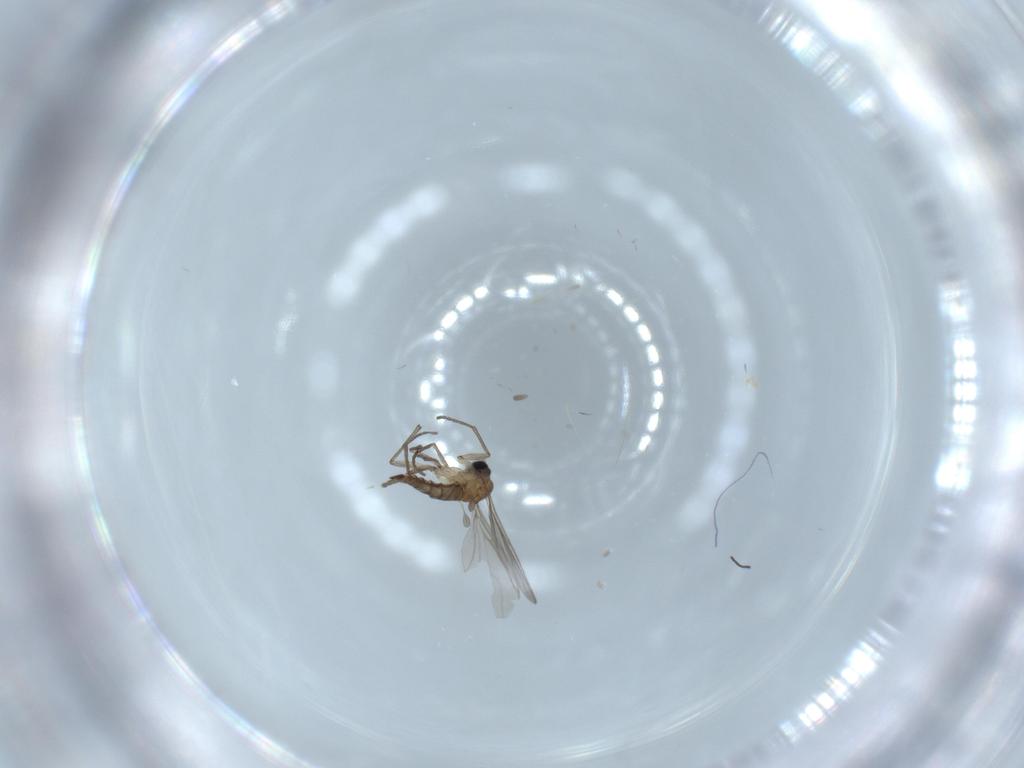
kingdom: Animalia
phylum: Arthropoda
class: Insecta
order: Diptera
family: Sciaridae
